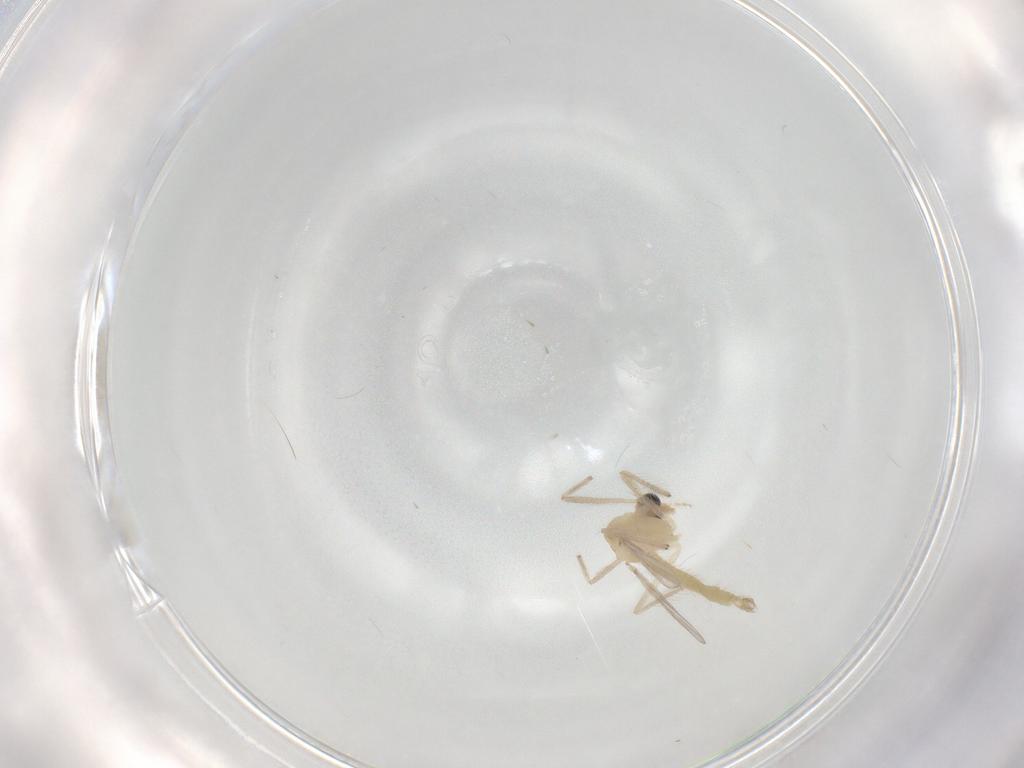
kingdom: Animalia
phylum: Arthropoda
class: Insecta
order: Diptera
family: Chironomidae
